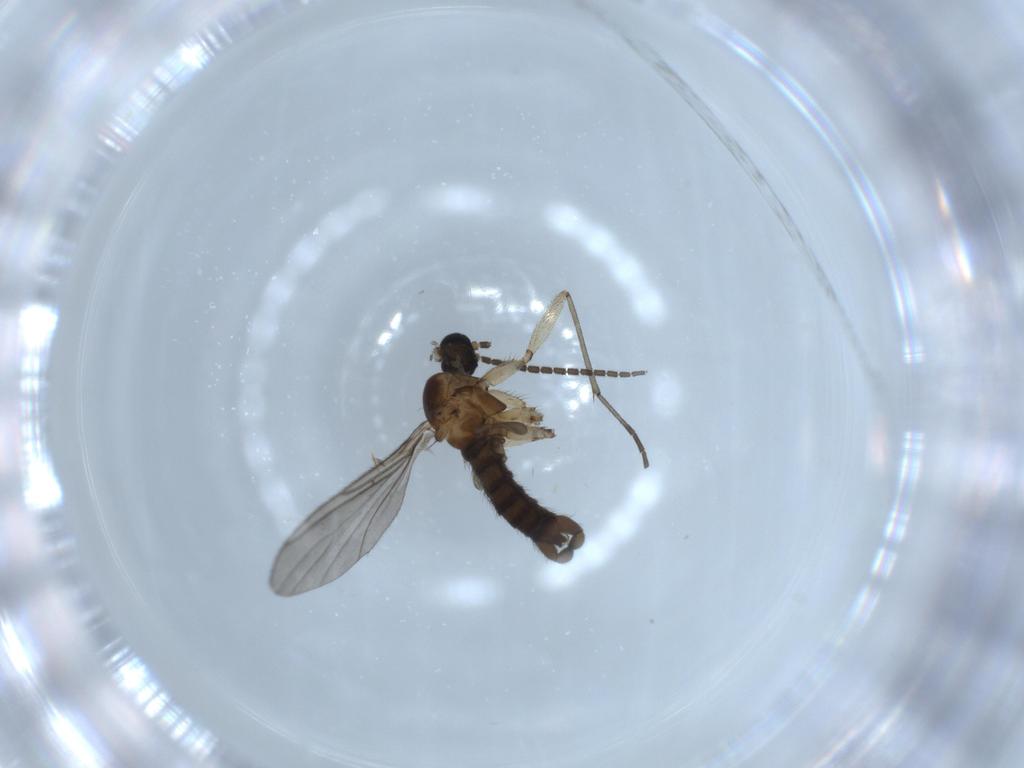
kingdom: Animalia
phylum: Arthropoda
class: Insecta
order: Diptera
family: Sciaridae
